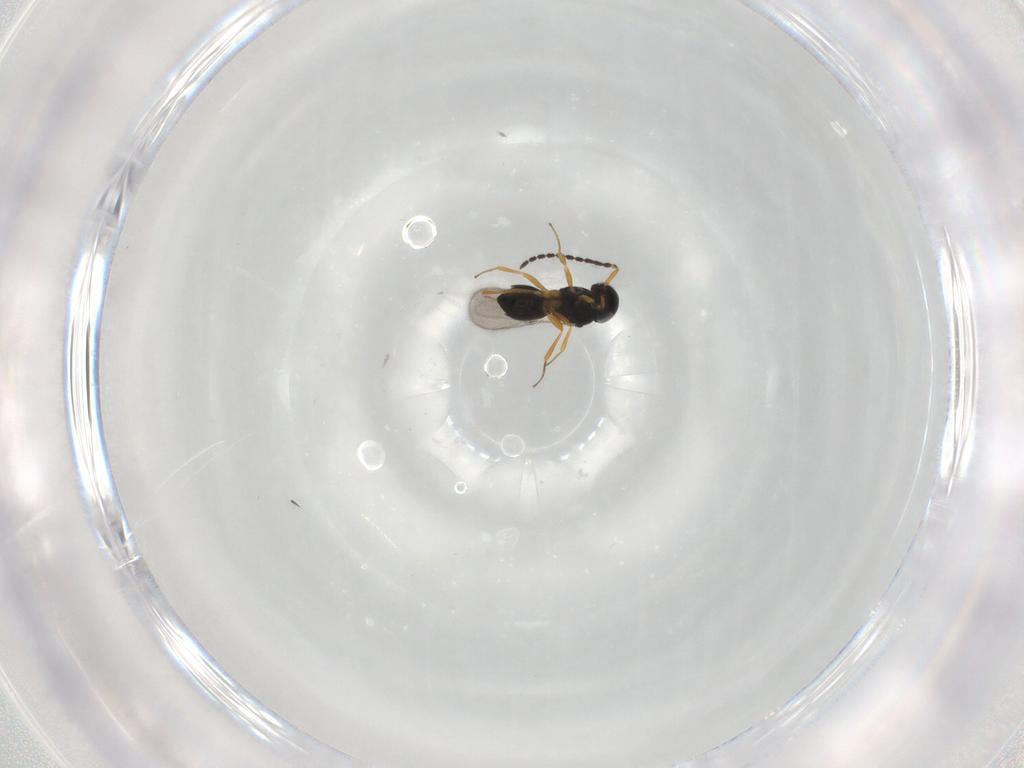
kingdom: Animalia
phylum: Arthropoda
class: Insecta
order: Hymenoptera
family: Scelionidae
